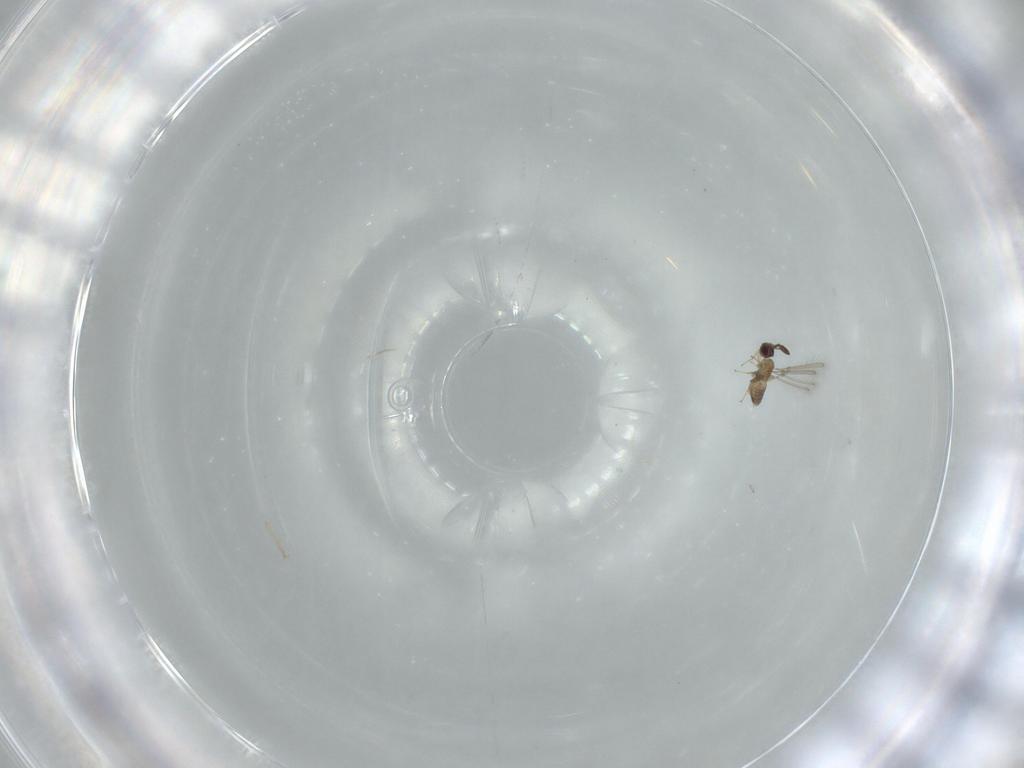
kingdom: Animalia
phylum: Arthropoda
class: Insecta
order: Hymenoptera
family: Mymaridae
